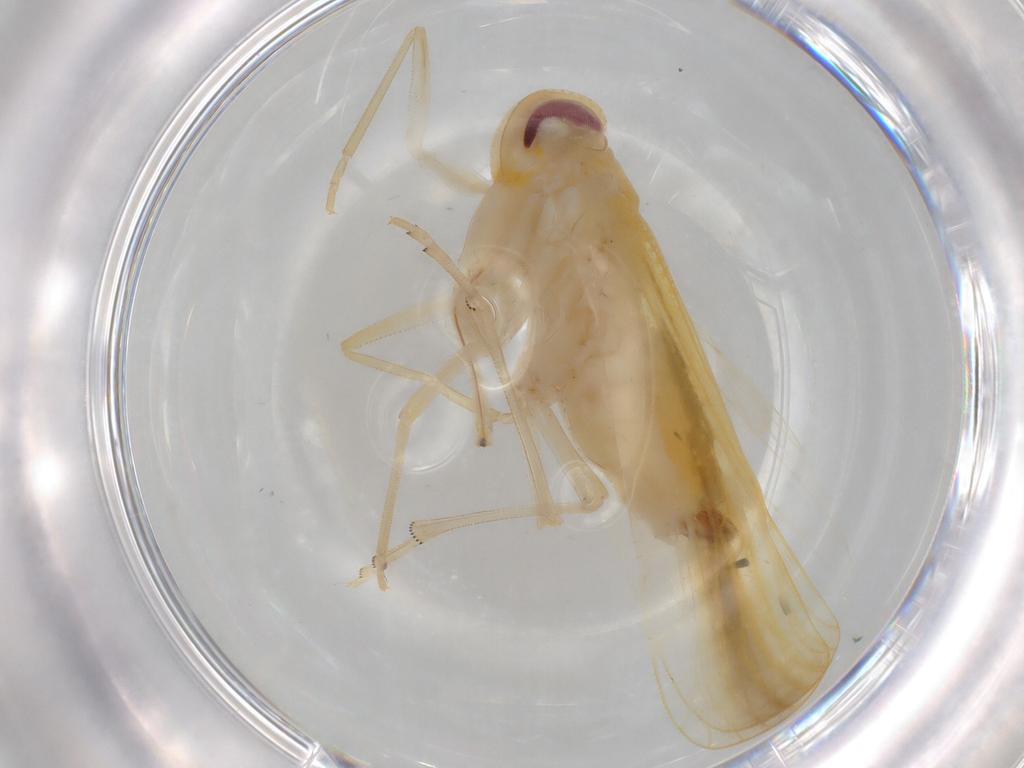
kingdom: Animalia
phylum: Arthropoda
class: Insecta
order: Hemiptera
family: Derbidae
